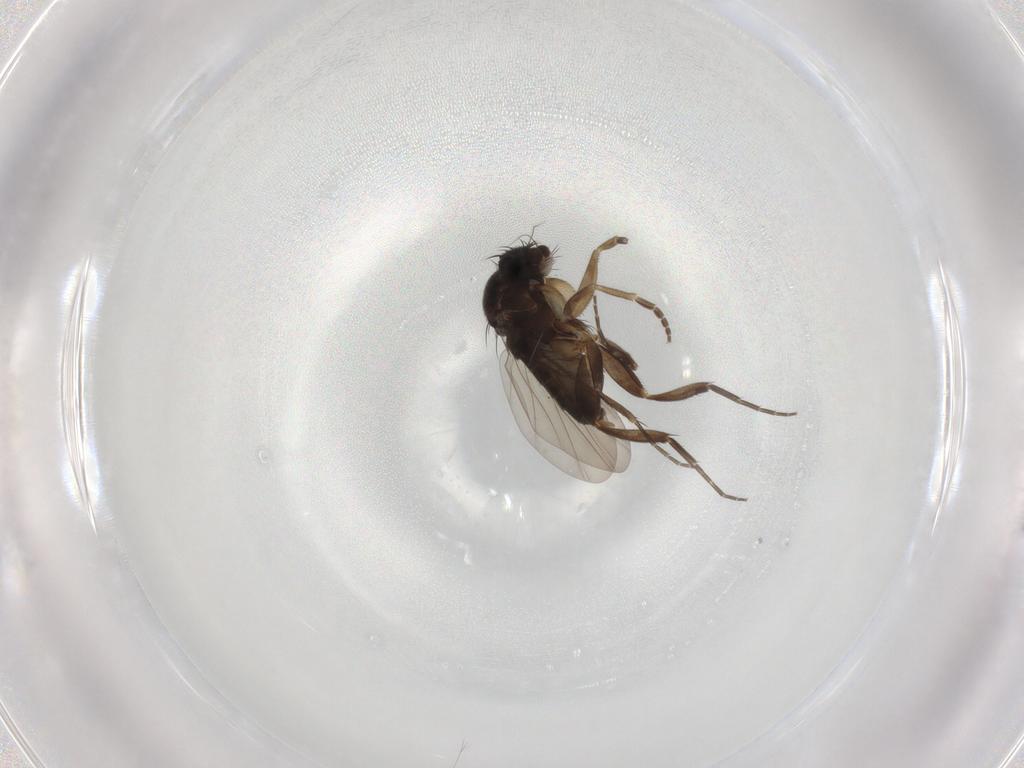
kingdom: Animalia
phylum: Arthropoda
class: Insecta
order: Diptera
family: Phoridae
